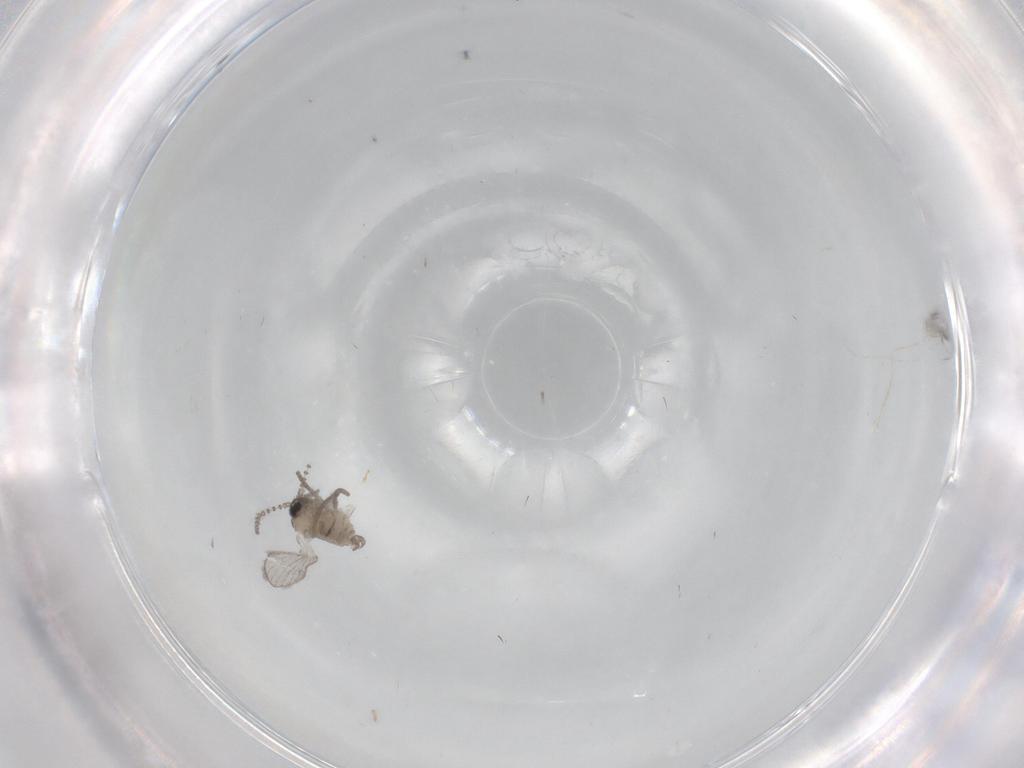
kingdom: Animalia
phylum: Arthropoda
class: Insecta
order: Diptera
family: Psychodidae
